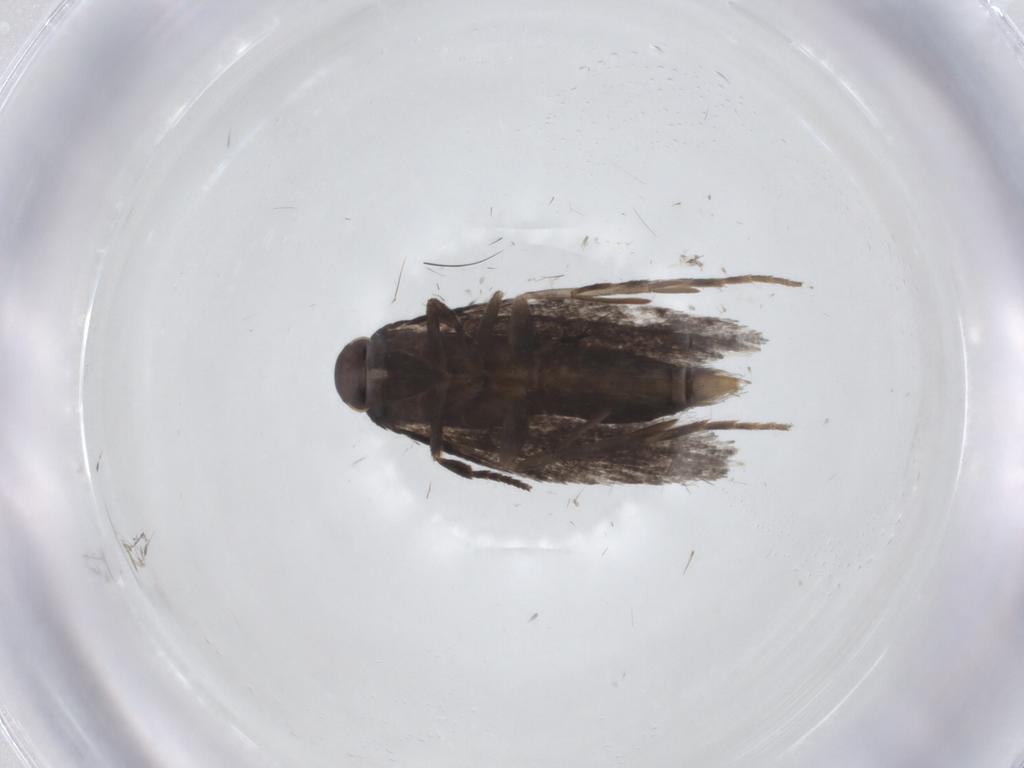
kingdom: Animalia
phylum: Arthropoda
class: Insecta
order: Lepidoptera
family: Elachistidae
